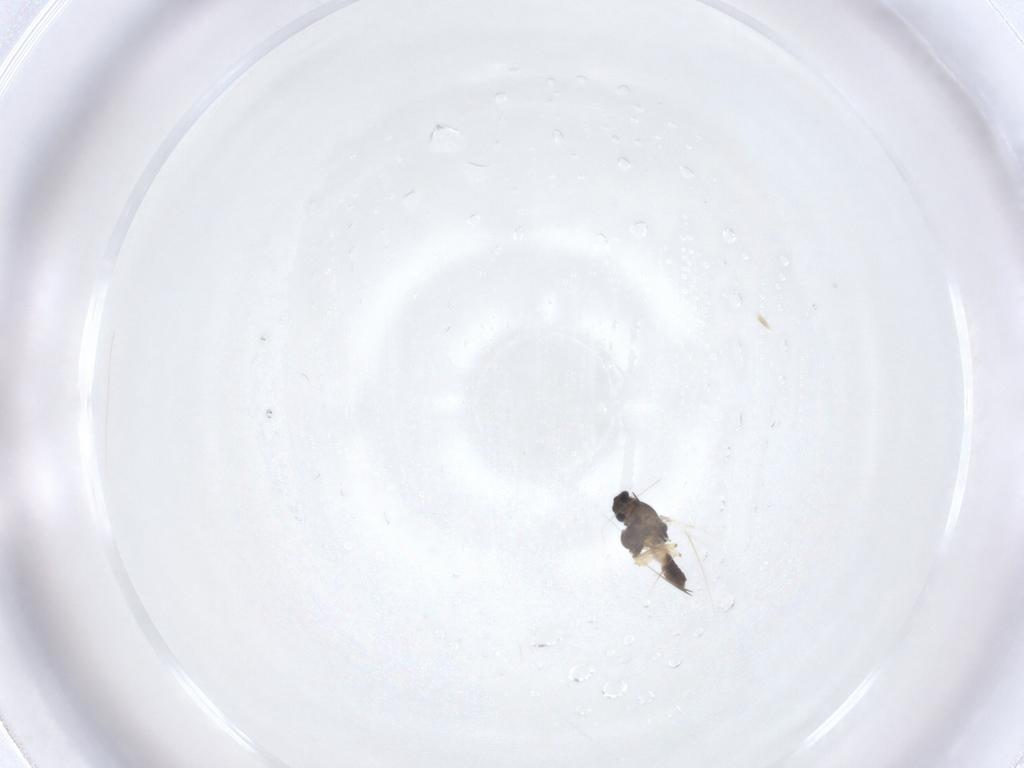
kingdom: Animalia
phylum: Arthropoda
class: Insecta
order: Diptera
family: Chironomidae
